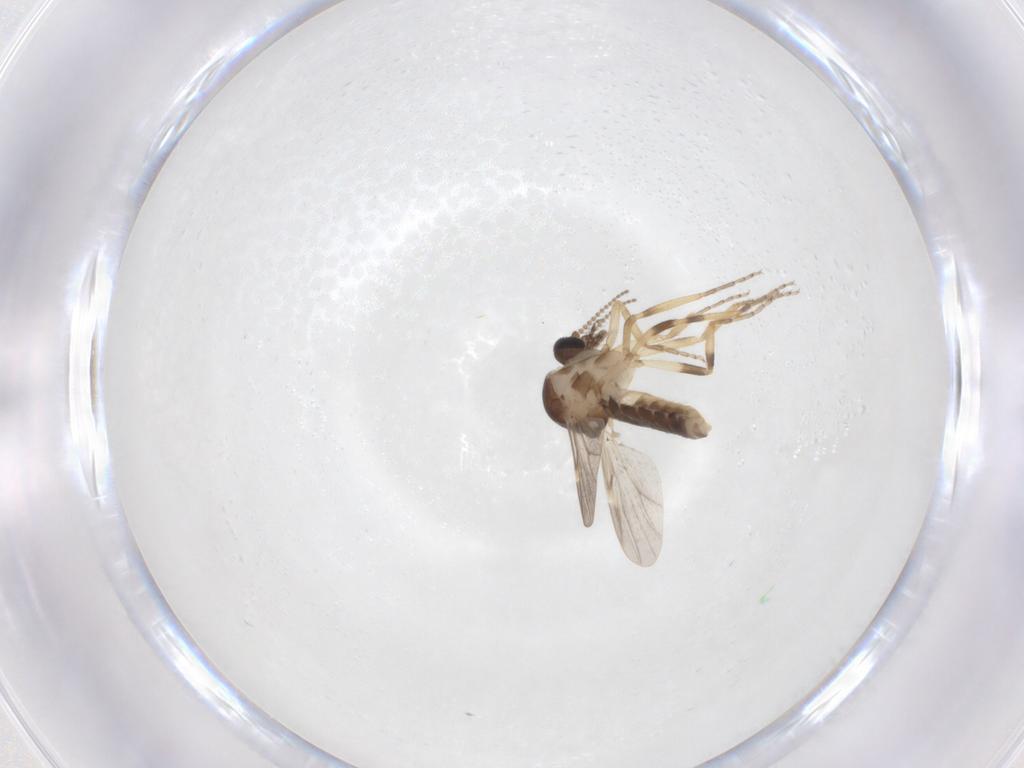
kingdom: Animalia
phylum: Arthropoda
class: Insecta
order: Diptera
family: Ceratopogonidae
